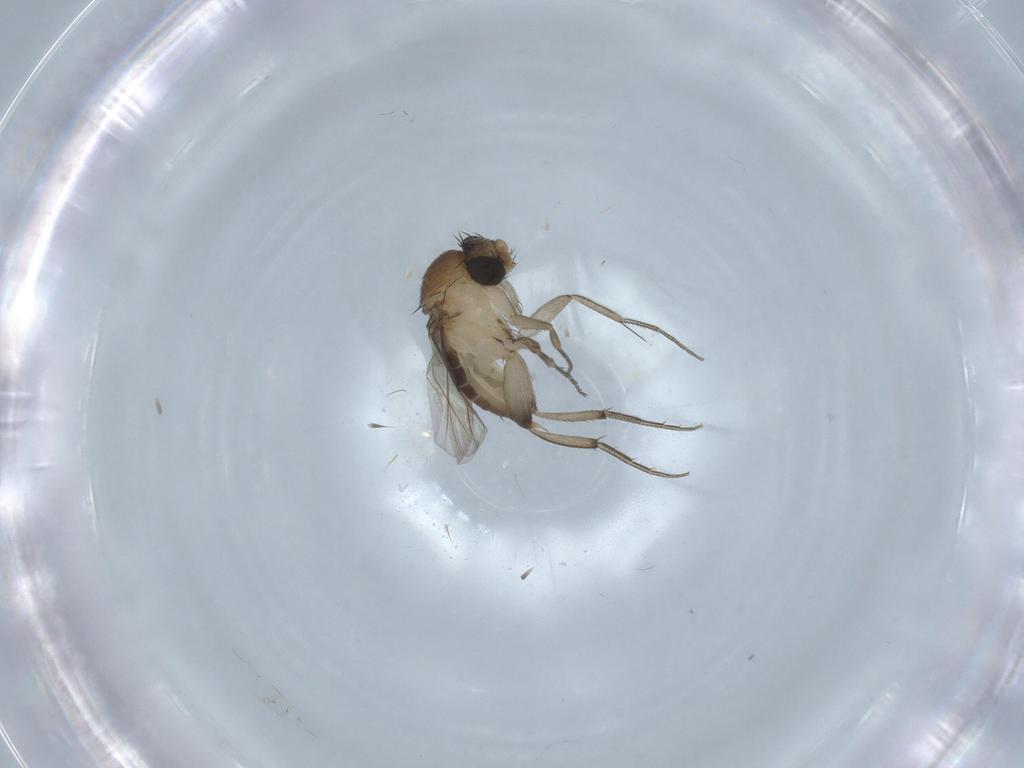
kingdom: Animalia
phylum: Arthropoda
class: Insecta
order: Diptera
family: Phoridae
